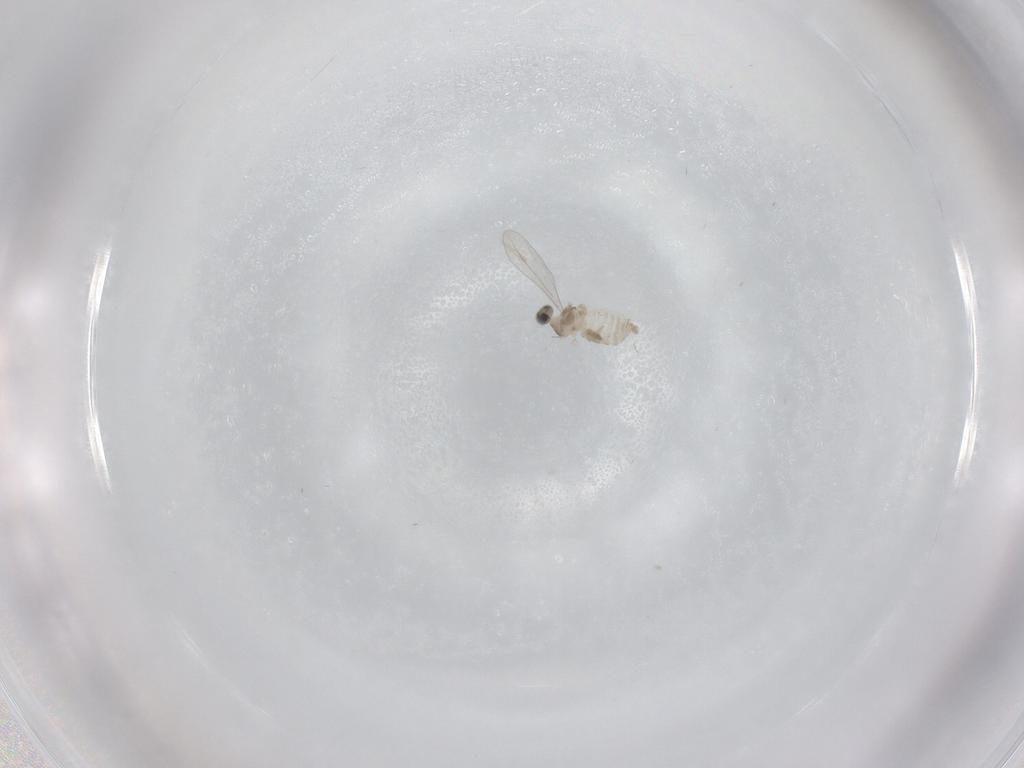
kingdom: Animalia
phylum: Arthropoda
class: Insecta
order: Diptera
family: Cecidomyiidae
